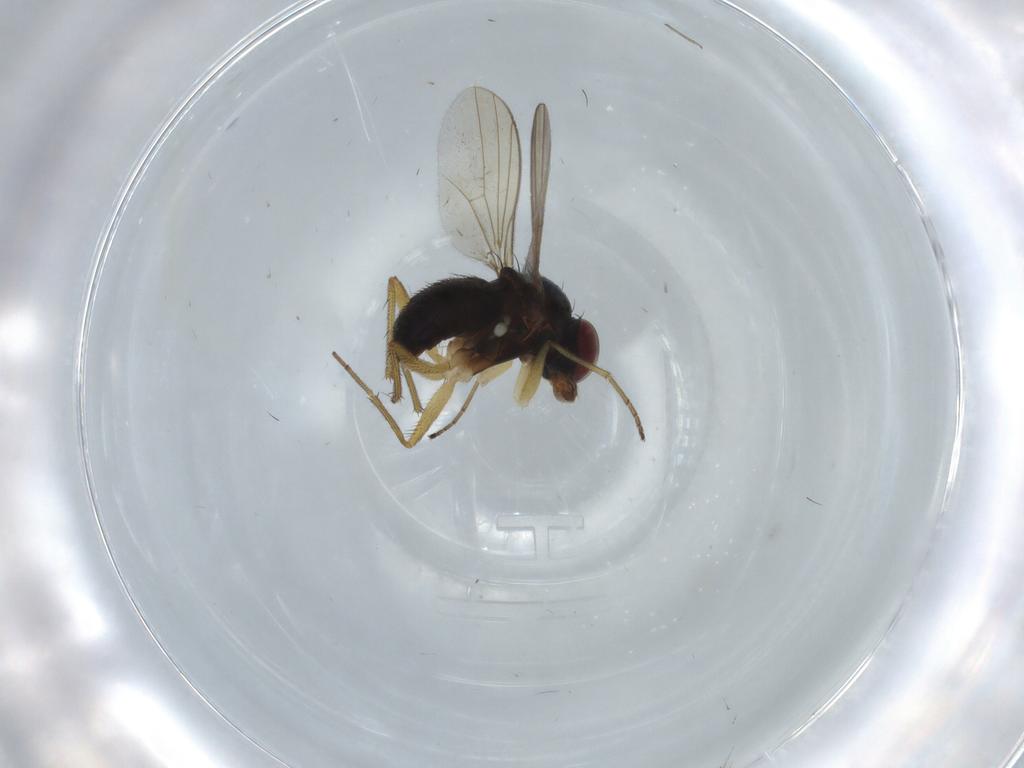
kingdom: Animalia
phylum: Arthropoda
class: Insecta
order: Diptera
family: Dolichopodidae
